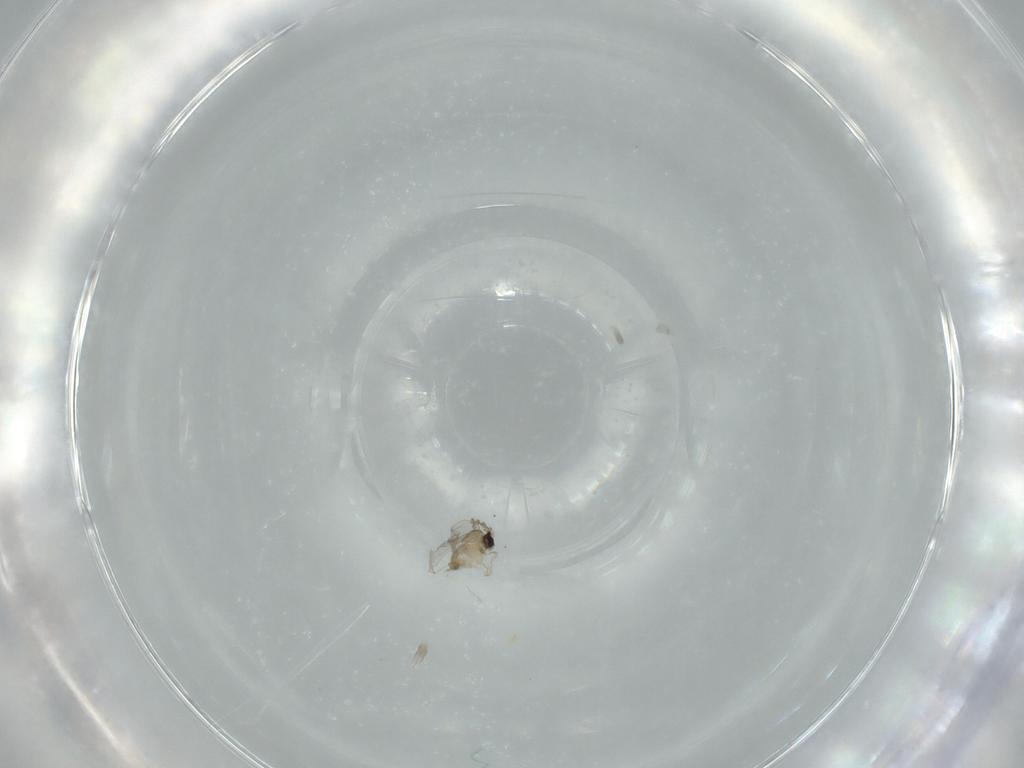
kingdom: Animalia
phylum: Arthropoda
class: Insecta
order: Diptera
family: Cecidomyiidae
